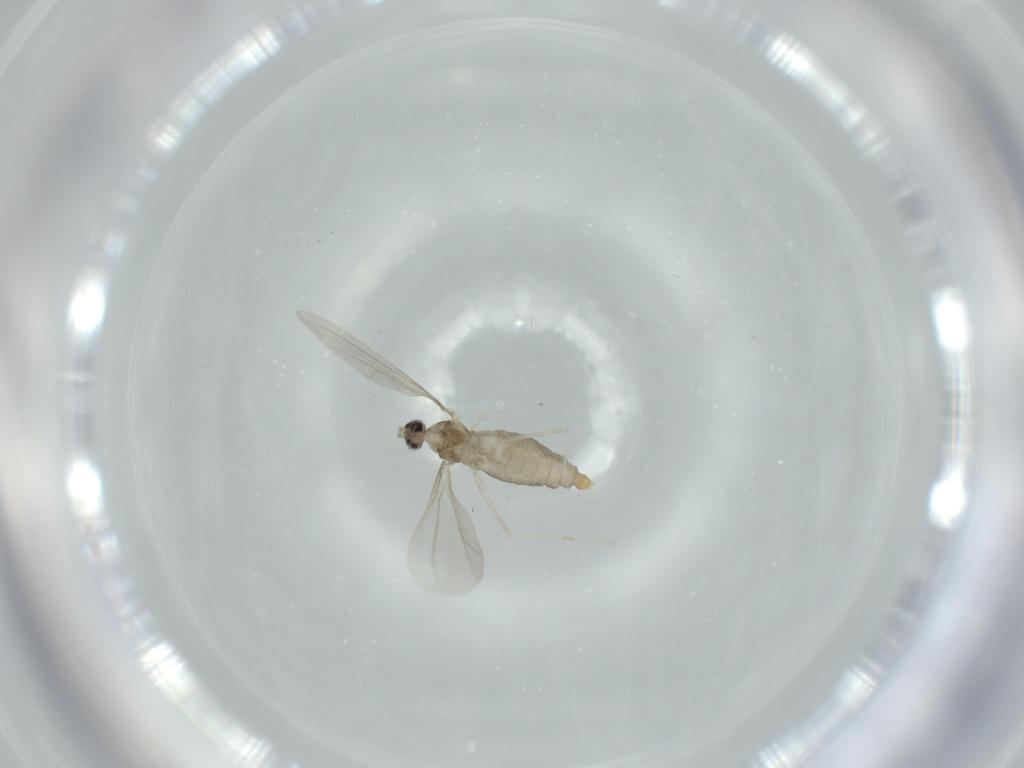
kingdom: Animalia
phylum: Arthropoda
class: Insecta
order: Diptera
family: Cecidomyiidae
